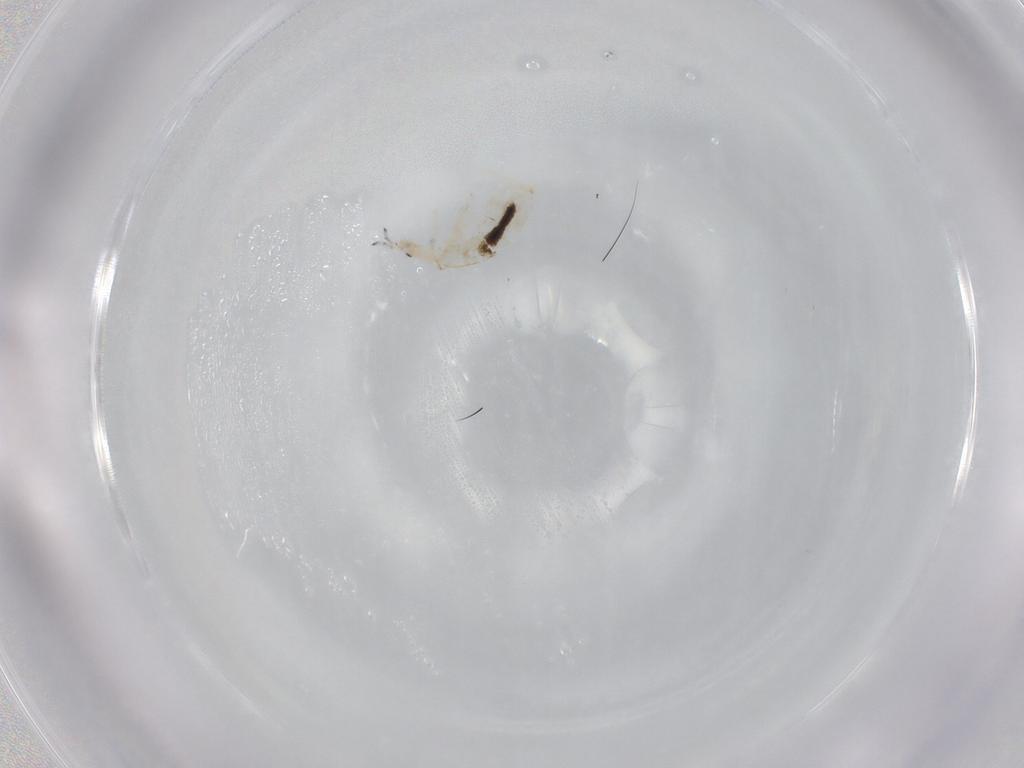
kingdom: Animalia
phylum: Arthropoda
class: Collembola
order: Entomobryomorpha
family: Entomobryidae
